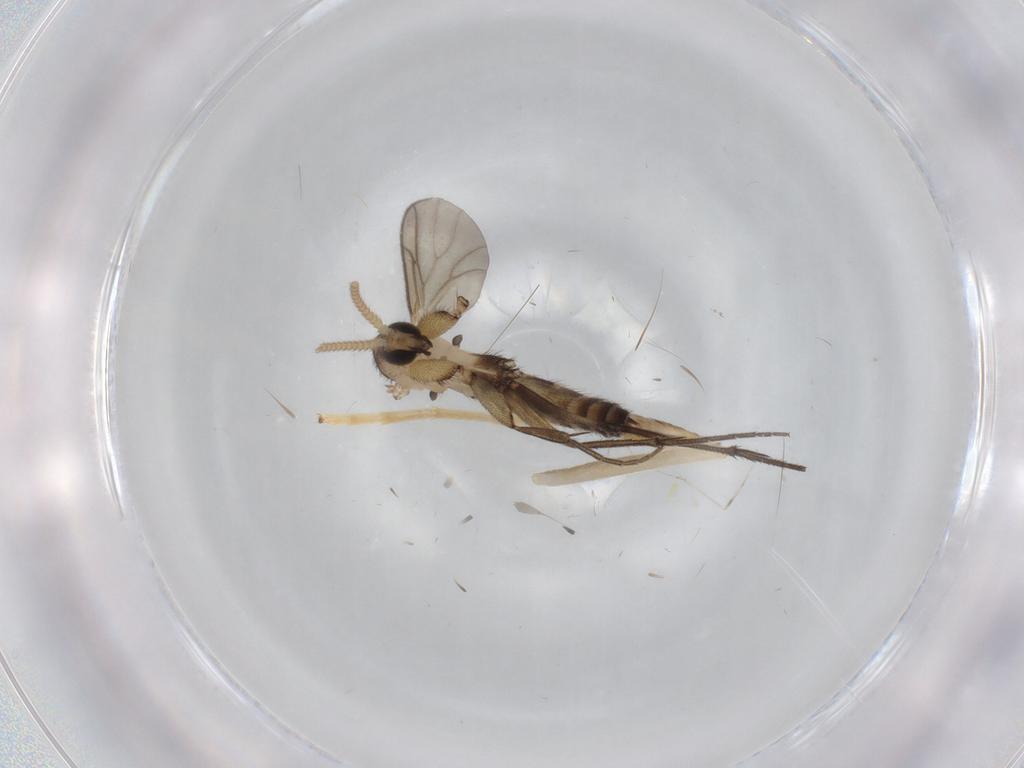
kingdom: Animalia
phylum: Arthropoda
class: Insecta
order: Diptera
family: Mycetophilidae
